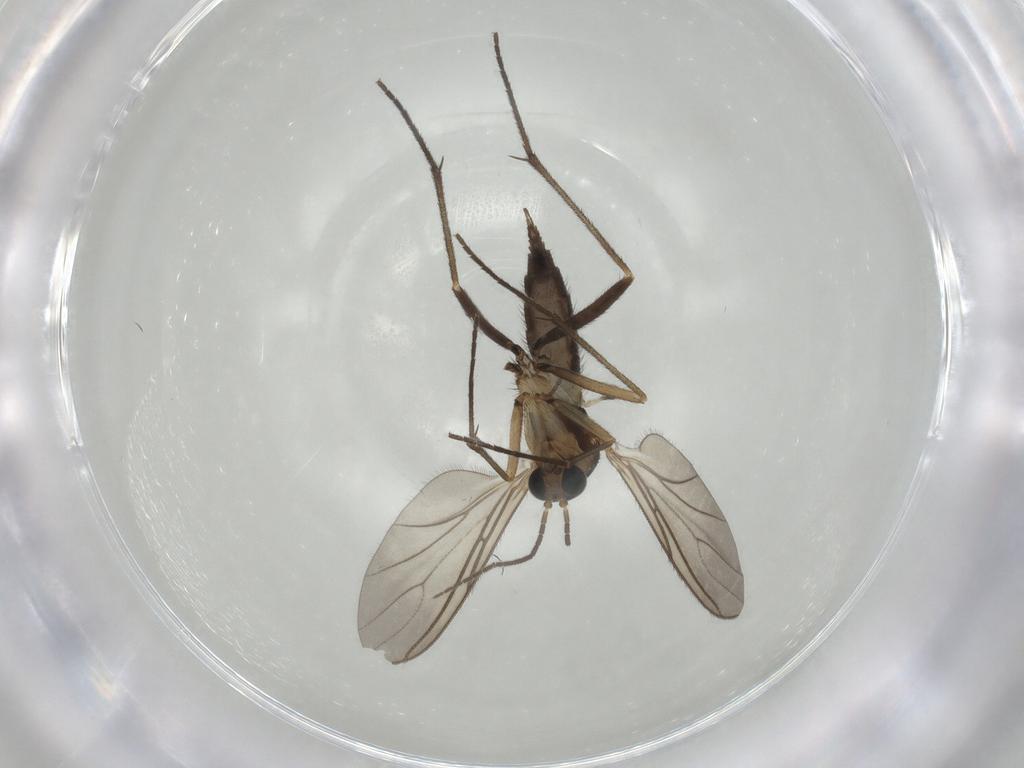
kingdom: Animalia
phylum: Arthropoda
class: Insecta
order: Diptera
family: Sciaridae
